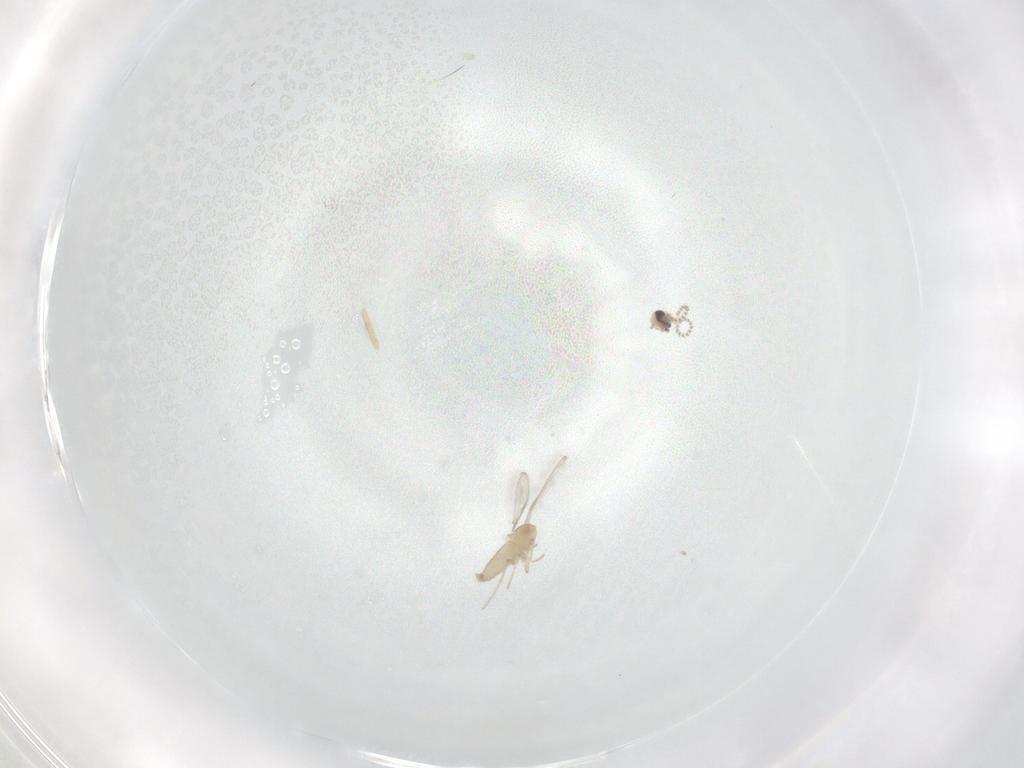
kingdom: Animalia
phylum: Arthropoda
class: Insecta
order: Diptera
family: Cecidomyiidae
